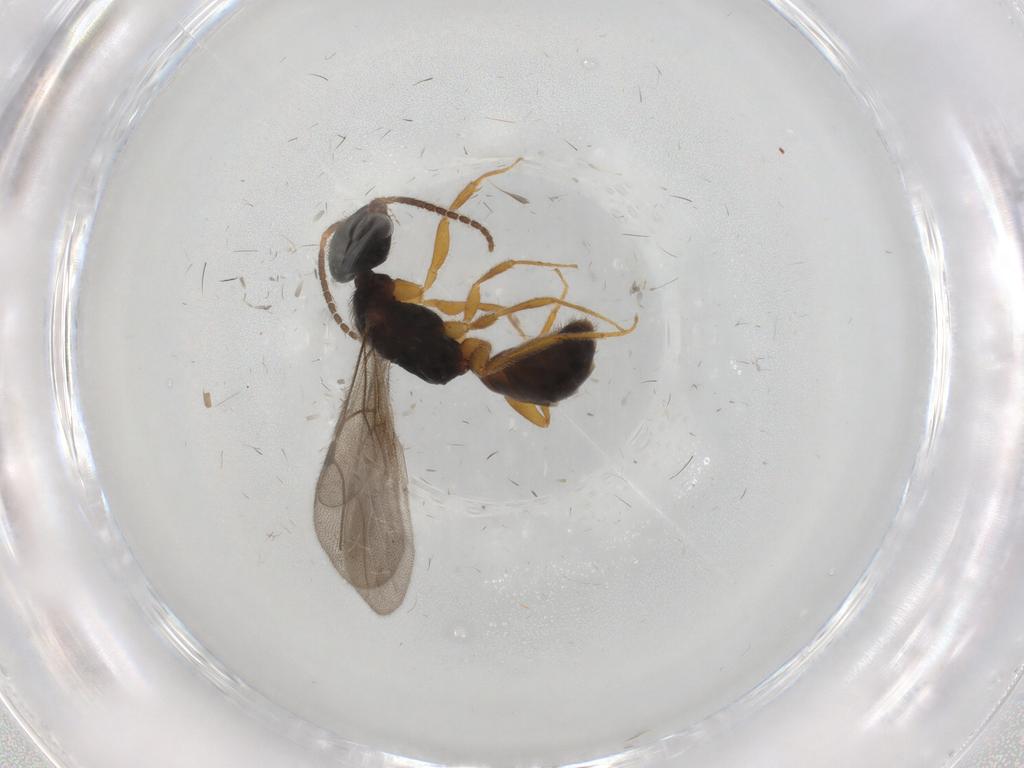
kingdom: Animalia
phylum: Arthropoda
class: Insecta
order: Hymenoptera
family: Bethylidae
